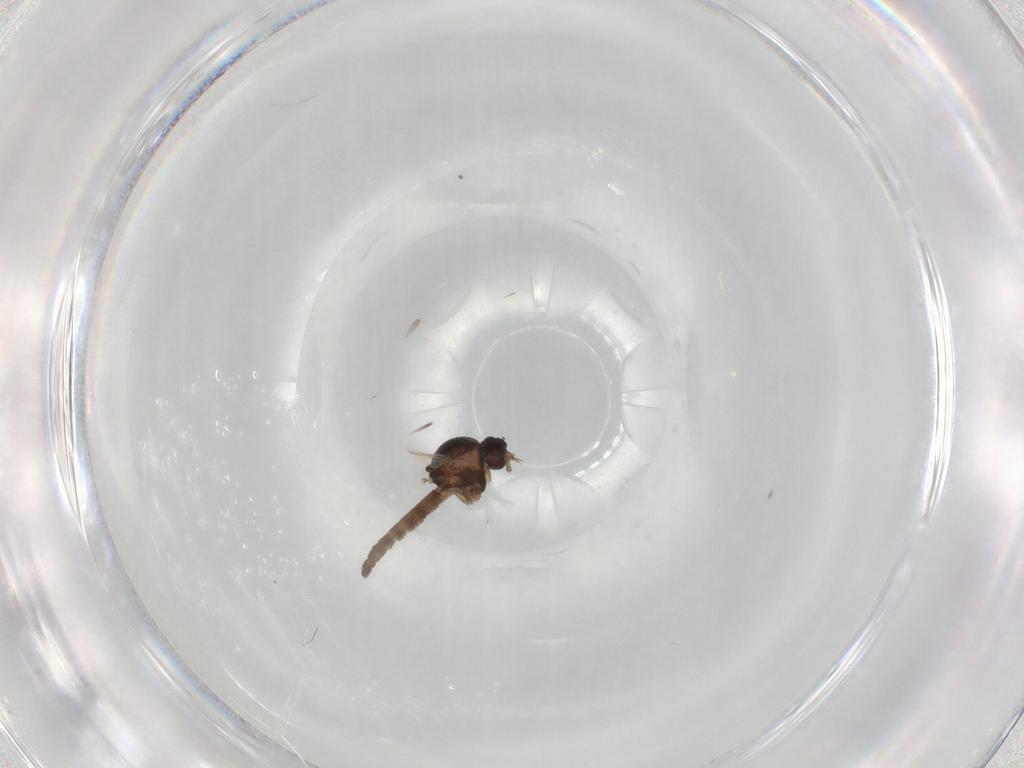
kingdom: Animalia
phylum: Arthropoda
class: Insecta
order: Diptera
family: Ceratopogonidae
